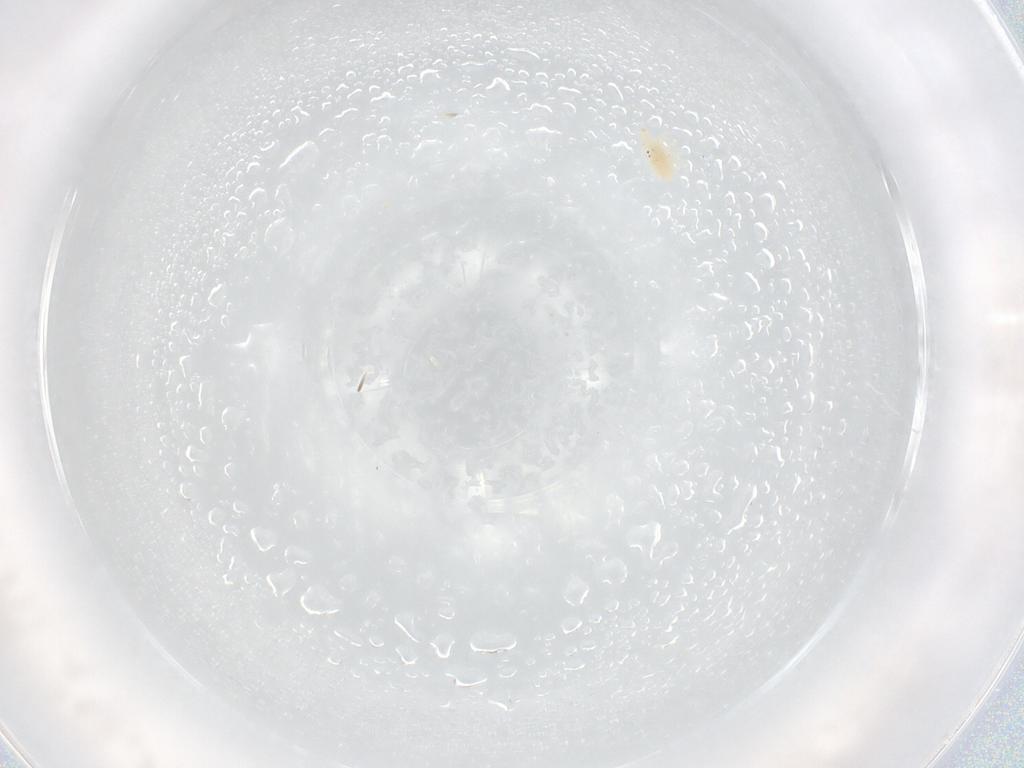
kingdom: Animalia
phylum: Arthropoda
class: Arachnida
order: Trombidiformes
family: Bdellidae
